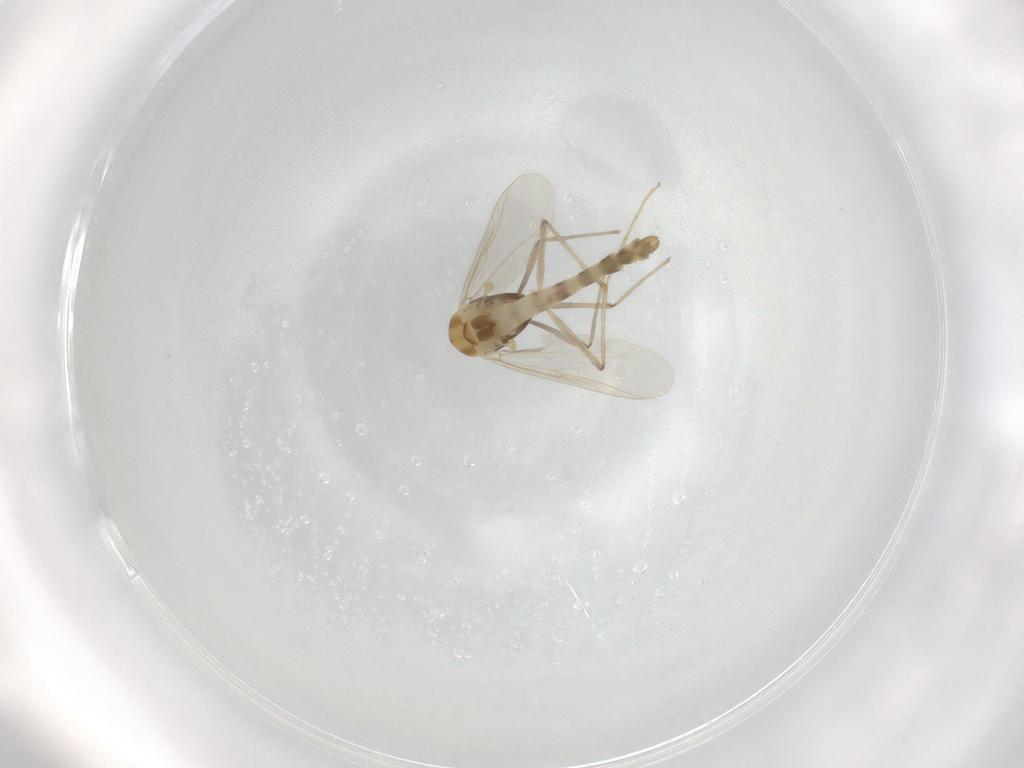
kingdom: Animalia
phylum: Arthropoda
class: Insecta
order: Diptera
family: Chironomidae
